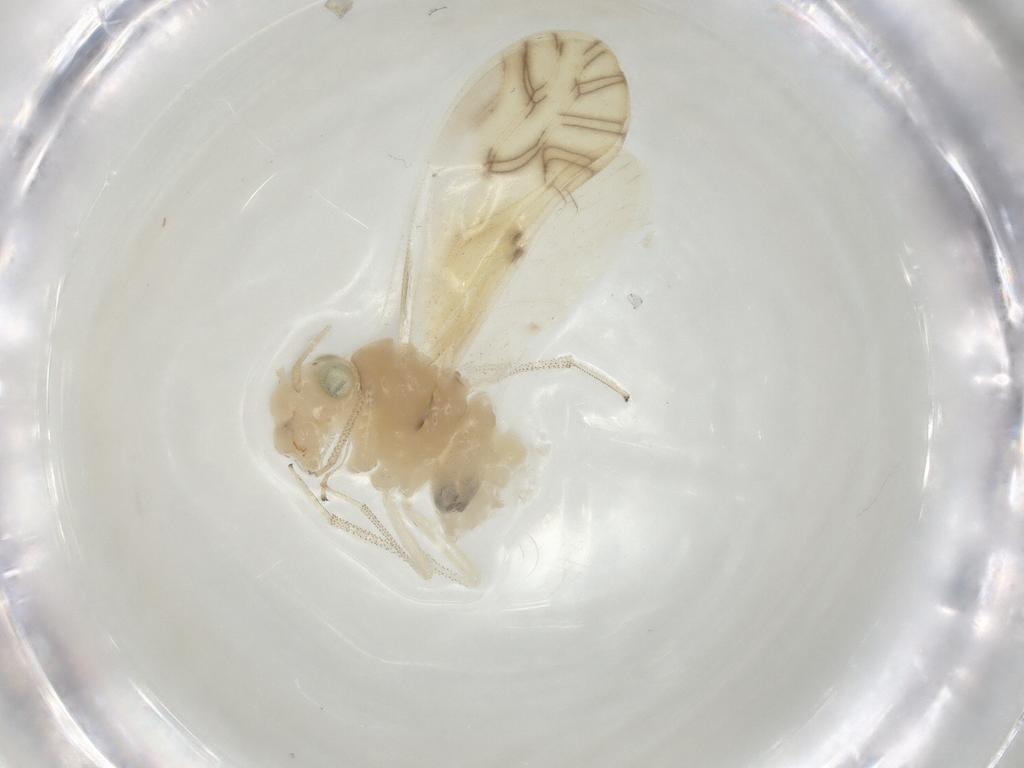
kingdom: Animalia
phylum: Arthropoda
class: Insecta
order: Psocodea
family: Caeciliusidae
